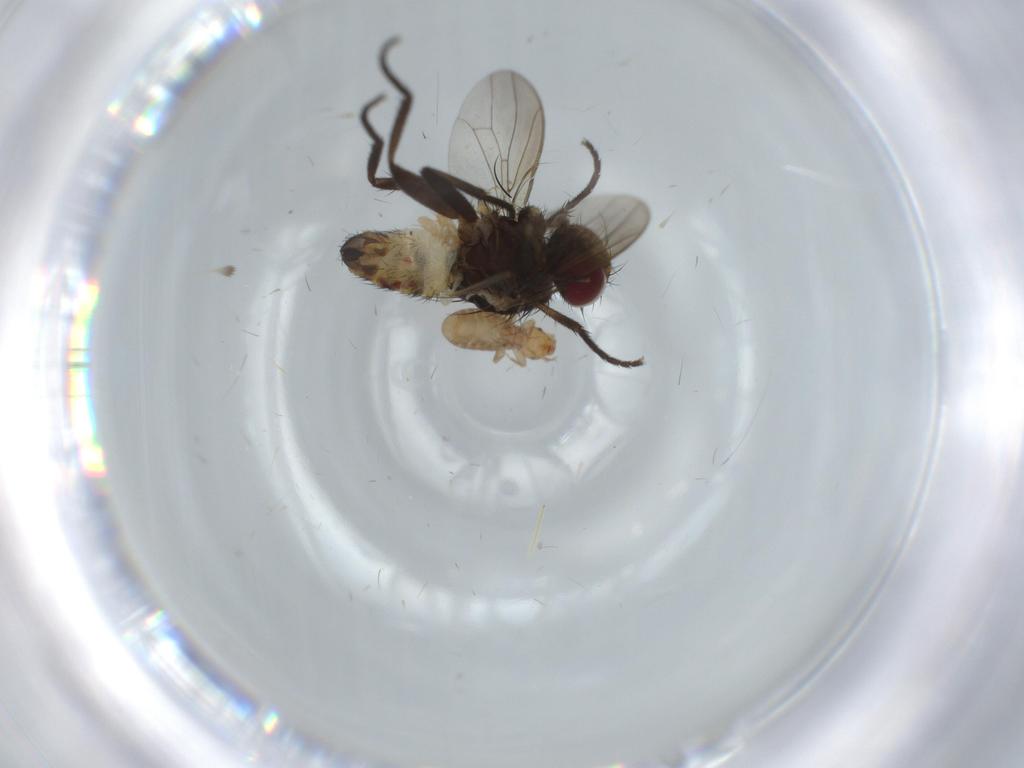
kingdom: Animalia
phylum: Arthropoda
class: Insecta
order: Psocodea
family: Liposcelididae
